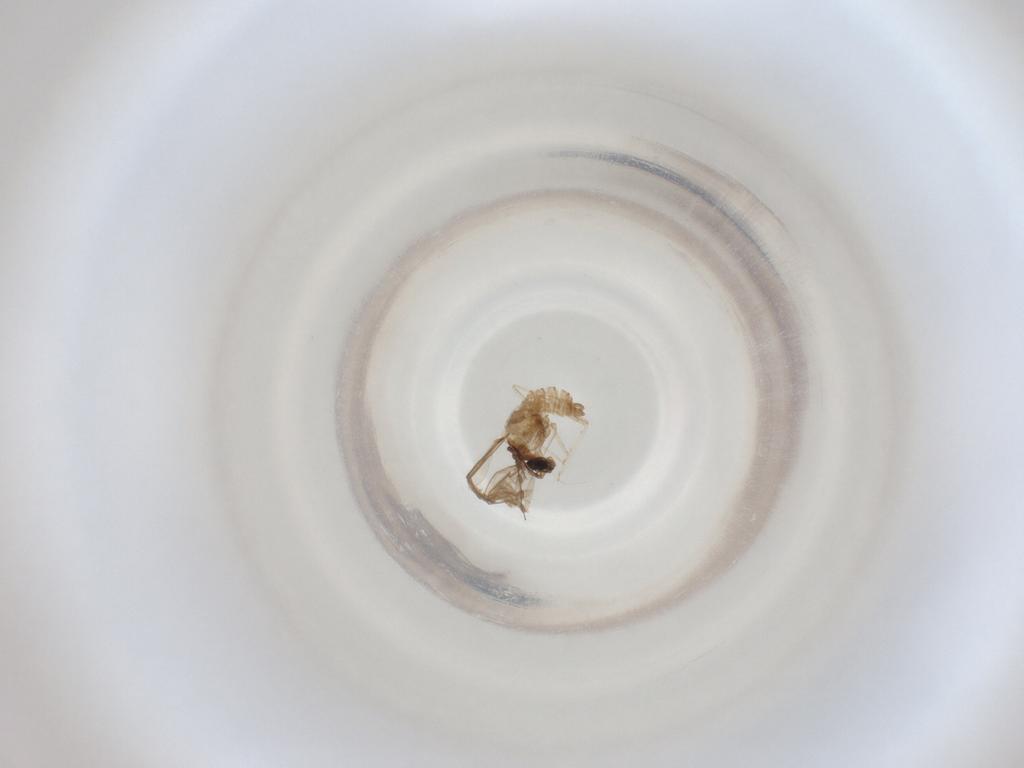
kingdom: Animalia
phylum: Arthropoda
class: Insecta
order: Diptera
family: Cecidomyiidae
